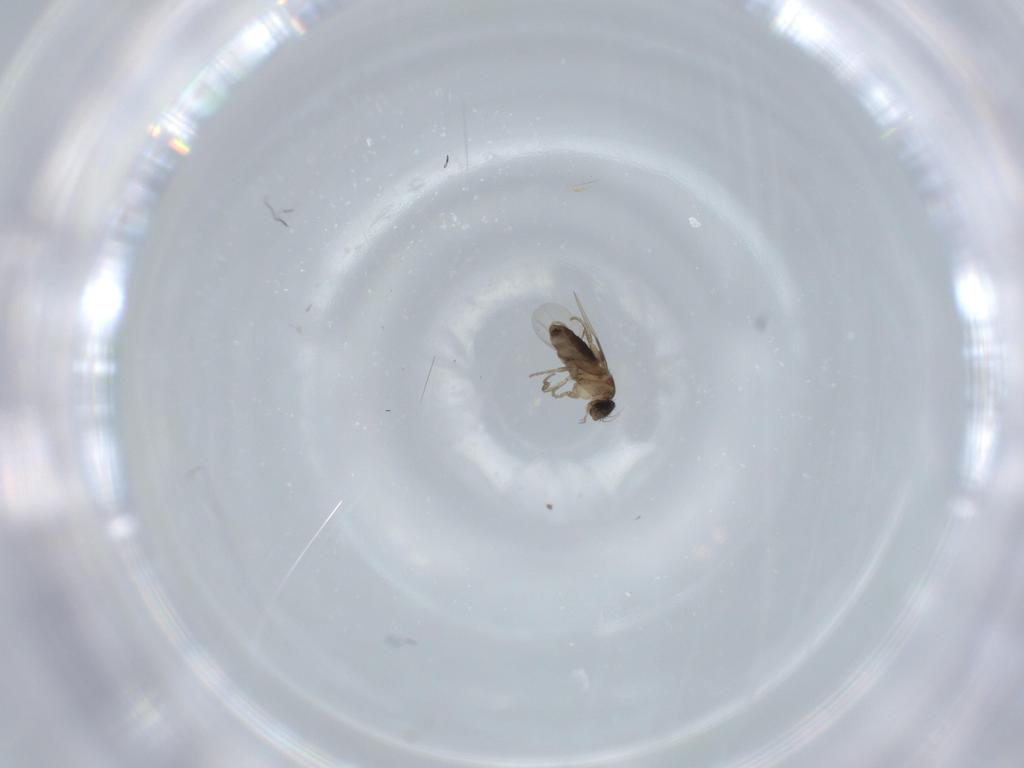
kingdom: Animalia
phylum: Arthropoda
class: Insecta
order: Diptera
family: Phoridae
